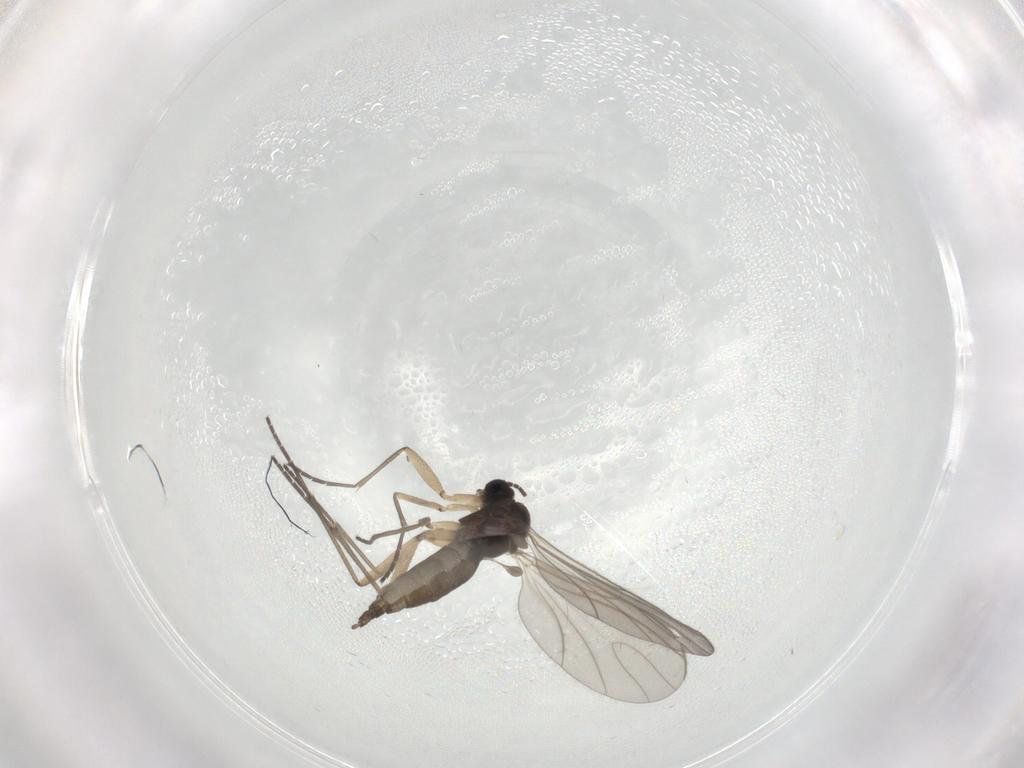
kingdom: Animalia
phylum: Arthropoda
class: Insecta
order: Diptera
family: Sciaridae
